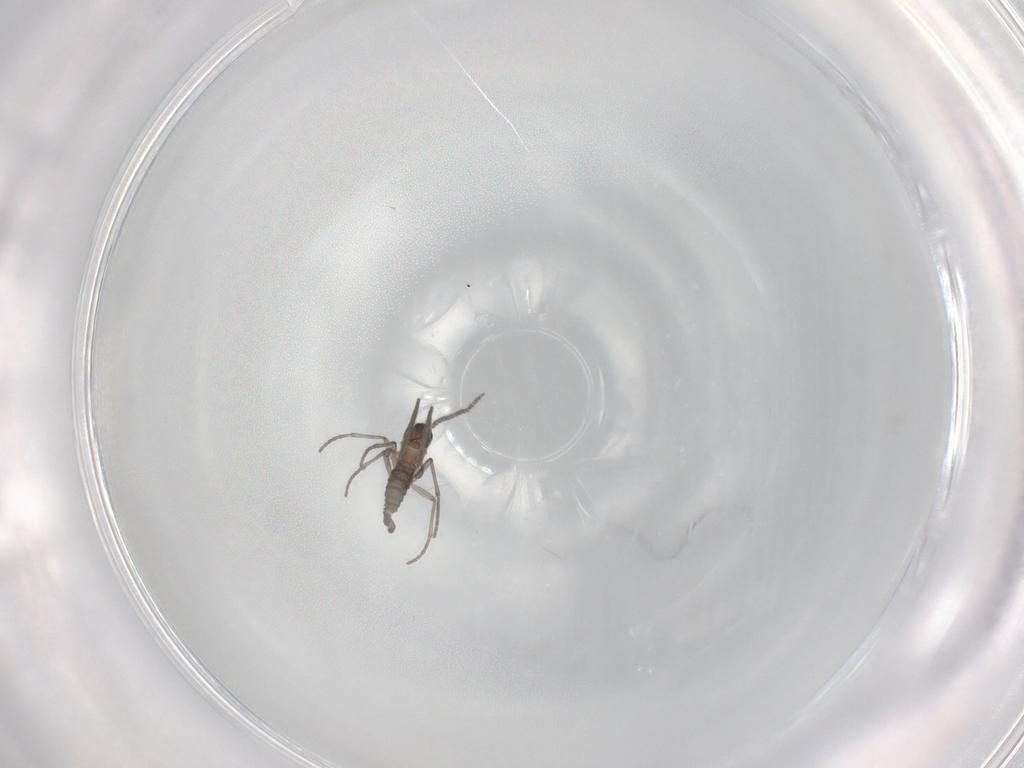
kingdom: Animalia
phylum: Arthropoda
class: Insecta
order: Diptera
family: Sciaridae
